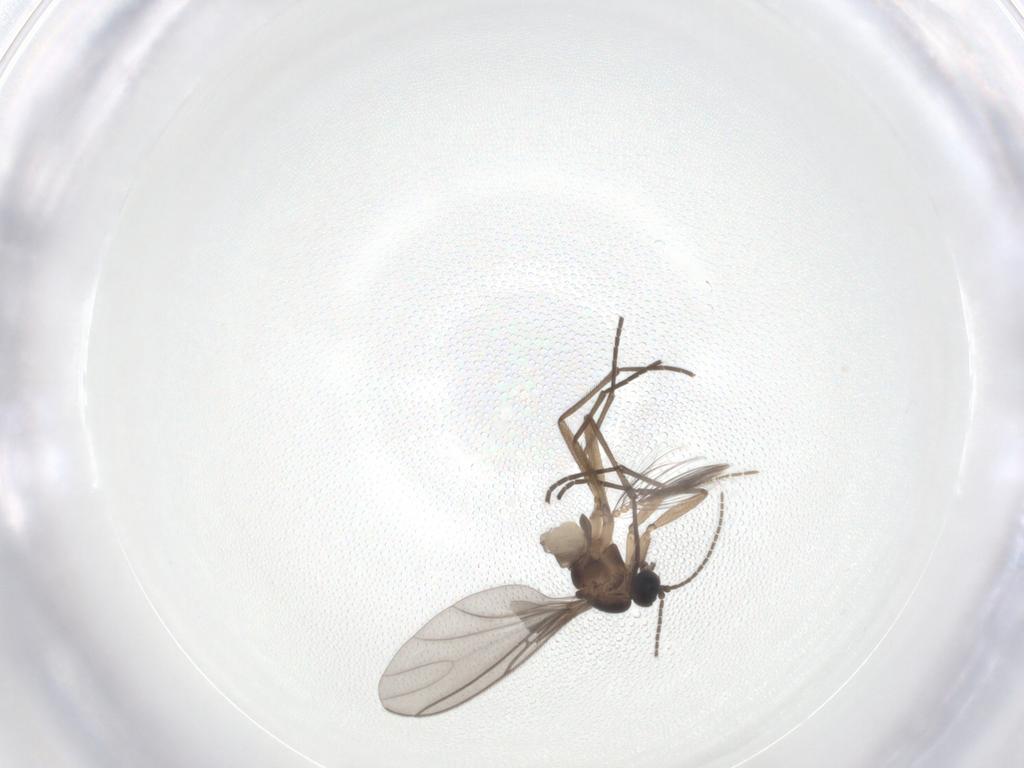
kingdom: Animalia
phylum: Arthropoda
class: Insecta
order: Diptera
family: Ceratopogonidae
